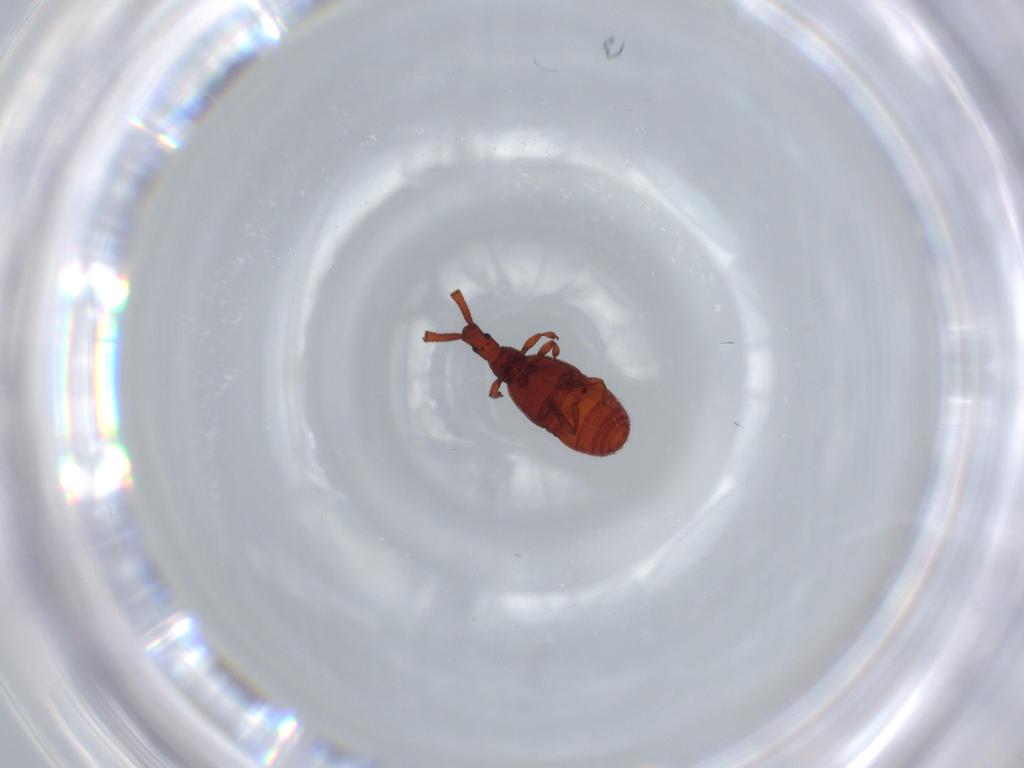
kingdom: Animalia
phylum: Arthropoda
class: Insecta
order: Coleoptera
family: Staphylinidae
